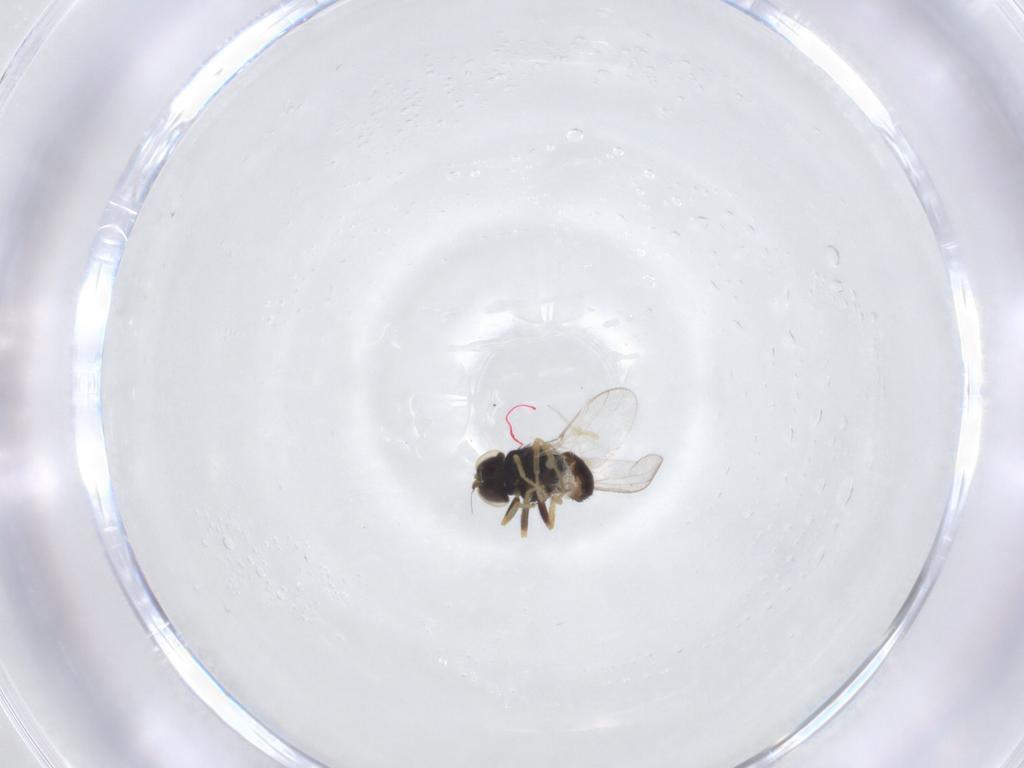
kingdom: Animalia
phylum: Arthropoda
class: Insecta
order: Diptera
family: Chloropidae
